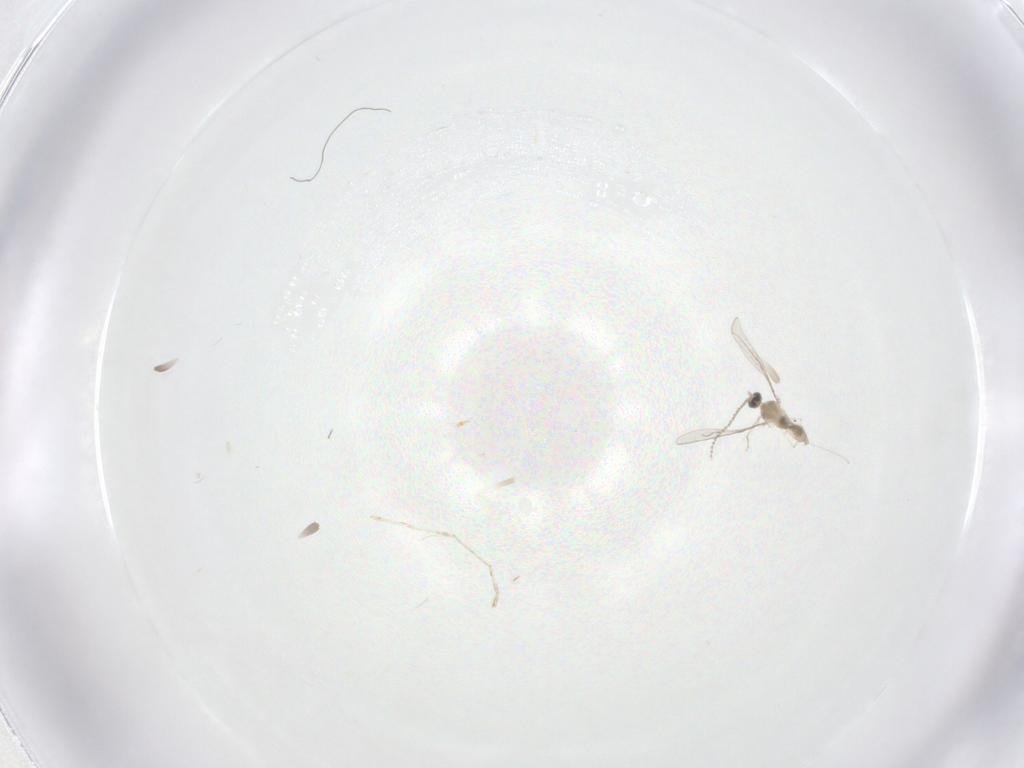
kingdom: Animalia
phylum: Arthropoda
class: Insecta
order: Diptera
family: Cecidomyiidae
